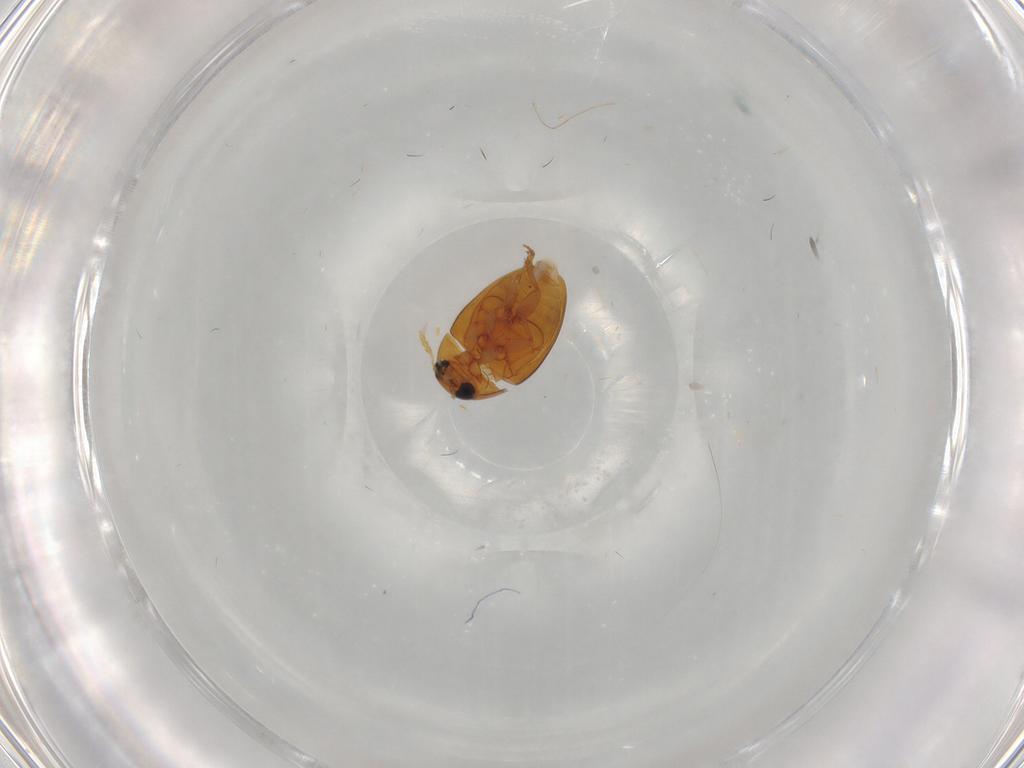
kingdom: Animalia
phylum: Arthropoda
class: Insecta
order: Coleoptera
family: Phalacridae
